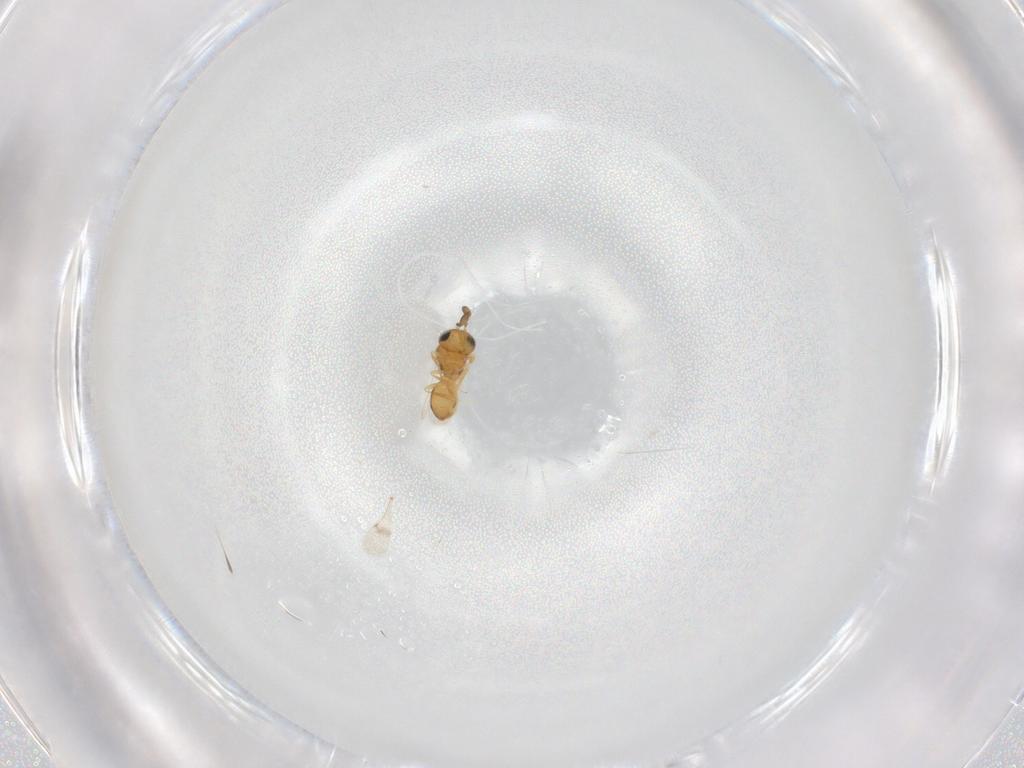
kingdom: Animalia
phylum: Arthropoda
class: Insecta
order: Hymenoptera
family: Scelionidae
